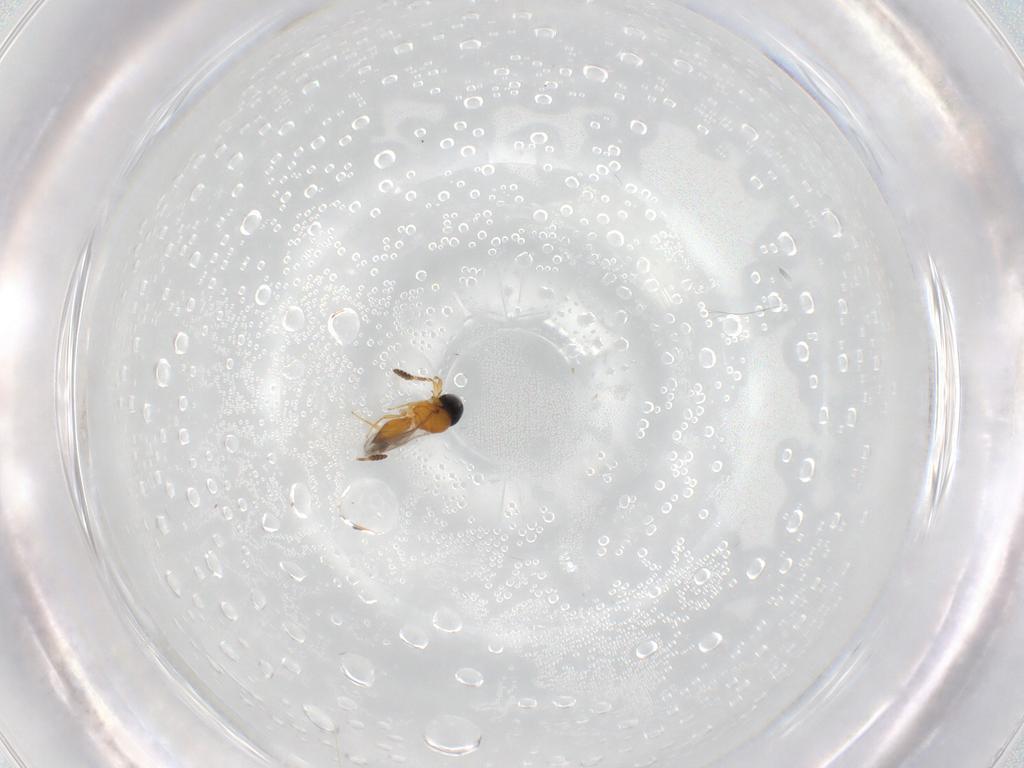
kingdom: Animalia
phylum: Arthropoda
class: Insecta
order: Hymenoptera
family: Scelionidae
